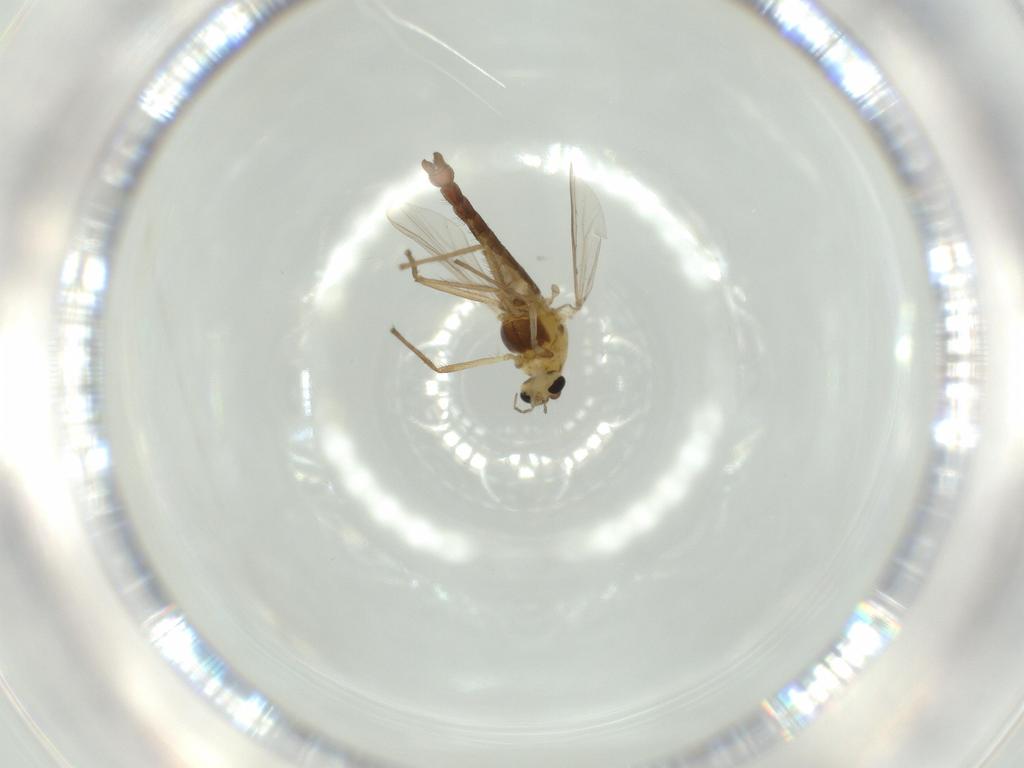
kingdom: Animalia
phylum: Arthropoda
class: Insecta
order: Diptera
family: Chironomidae
